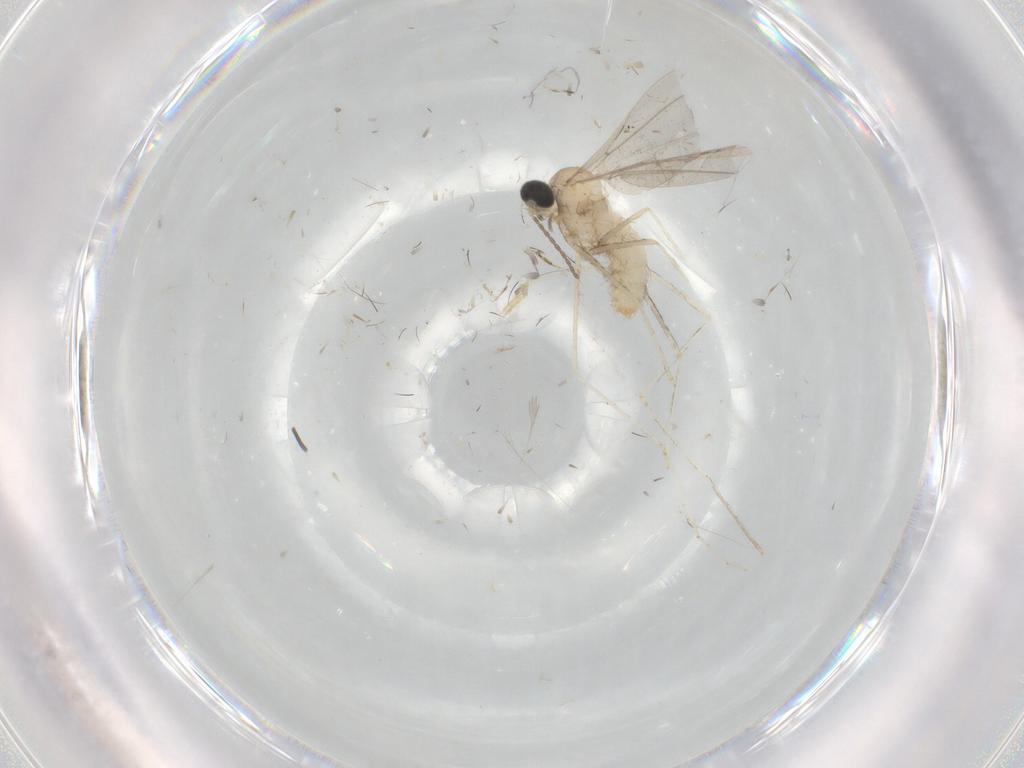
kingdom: Animalia
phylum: Arthropoda
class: Insecta
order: Diptera
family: Cecidomyiidae
